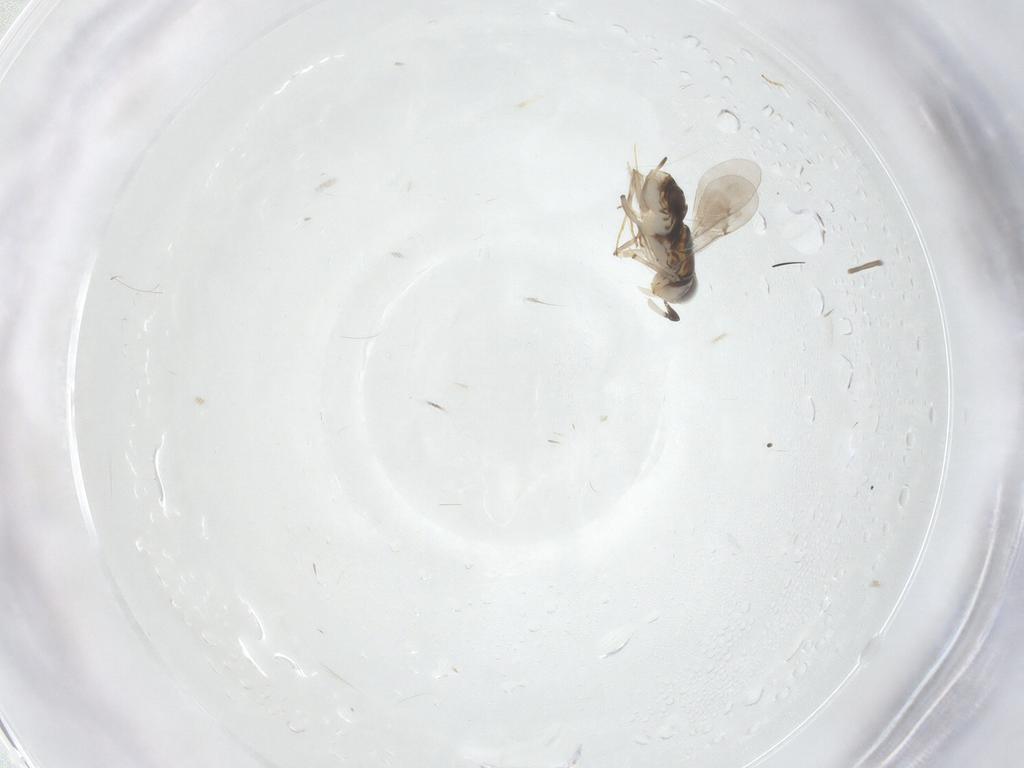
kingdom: Animalia
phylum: Arthropoda
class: Insecta
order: Hymenoptera
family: Encyrtidae
